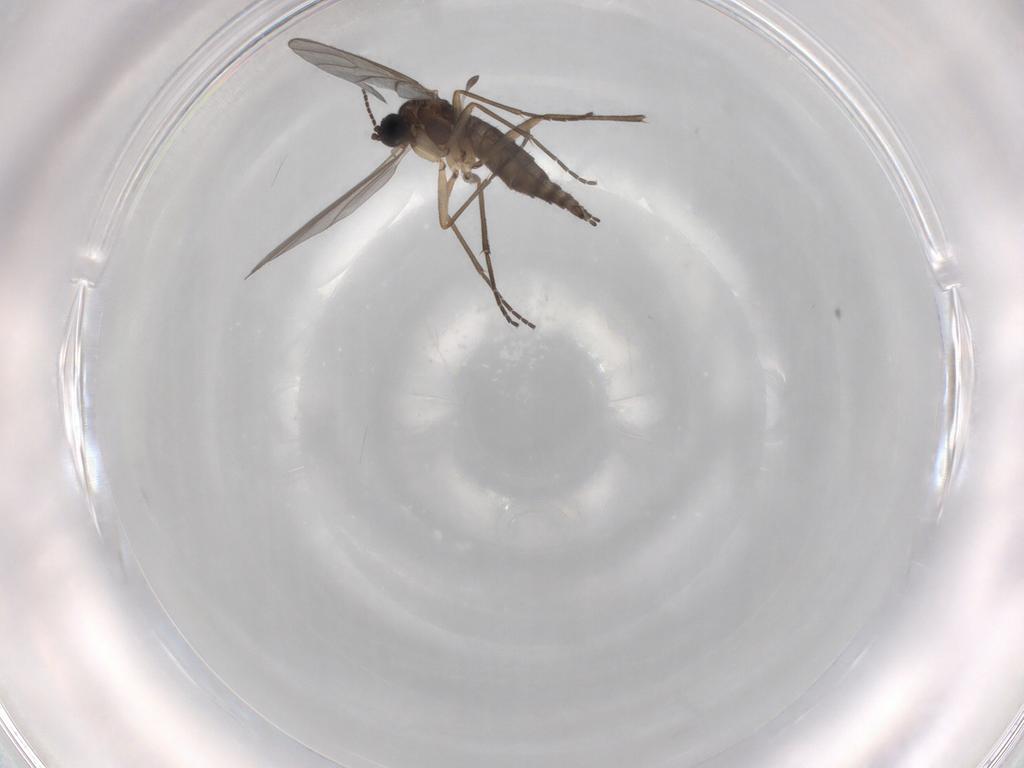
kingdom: Animalia
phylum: Arthropoda
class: Insecta
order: Diptera
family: Sciaridae
